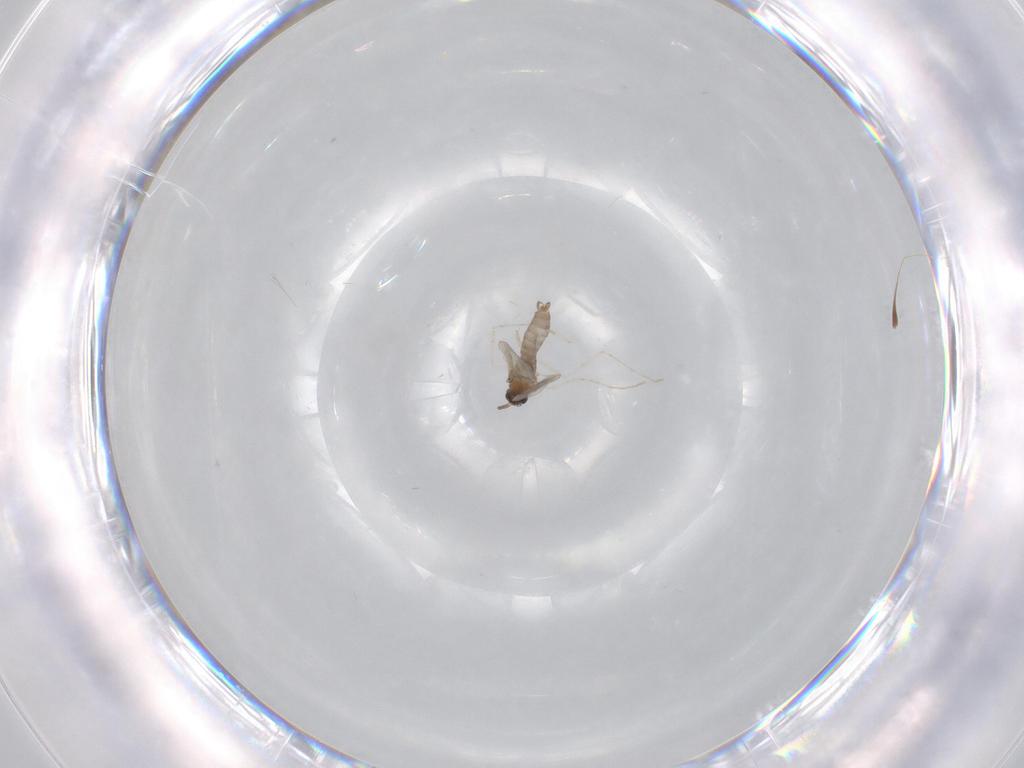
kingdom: Animalia
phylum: Arthropoda
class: Insecta
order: Diptera
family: Cecidomyiidae
